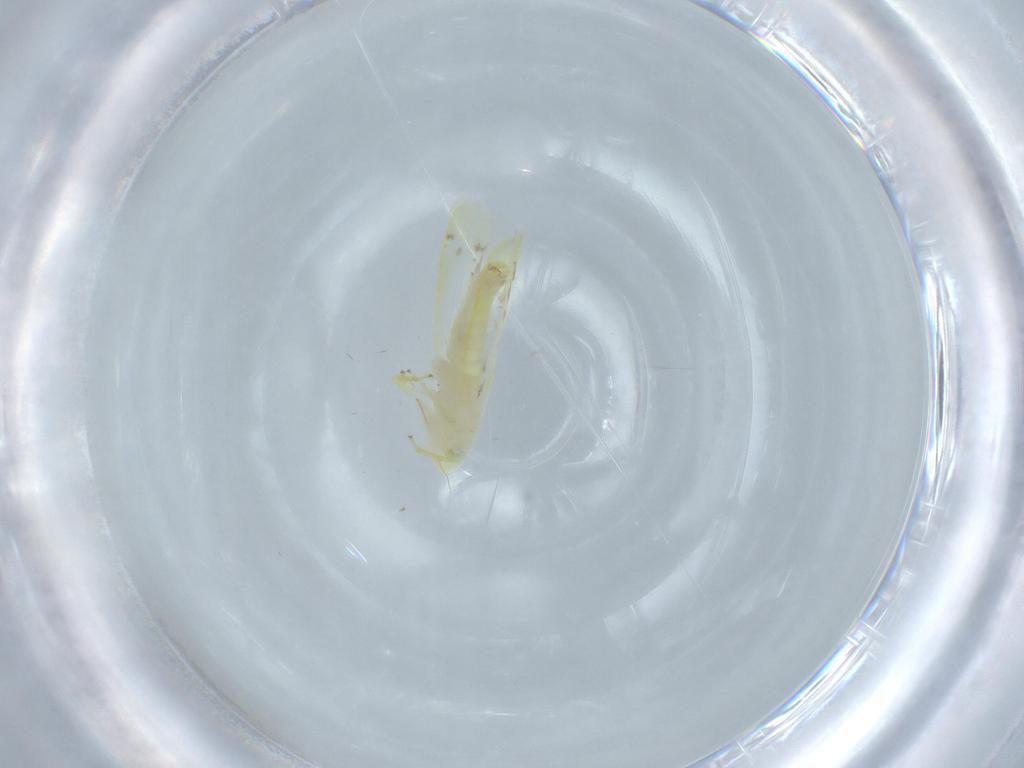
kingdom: Animalia
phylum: Arthropoda
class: Insecta
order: Hemiptera
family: Cicadellidae
